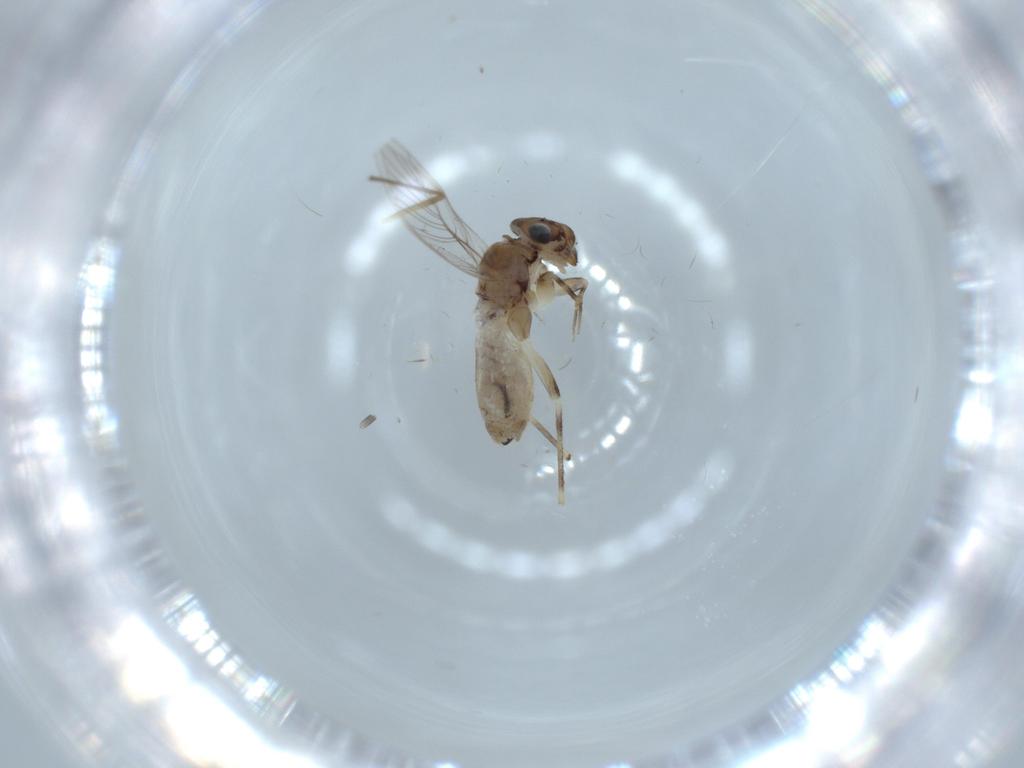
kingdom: Animalia
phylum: Arthropoda
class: Insecta
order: Psocodea
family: Lepidopsocidae
